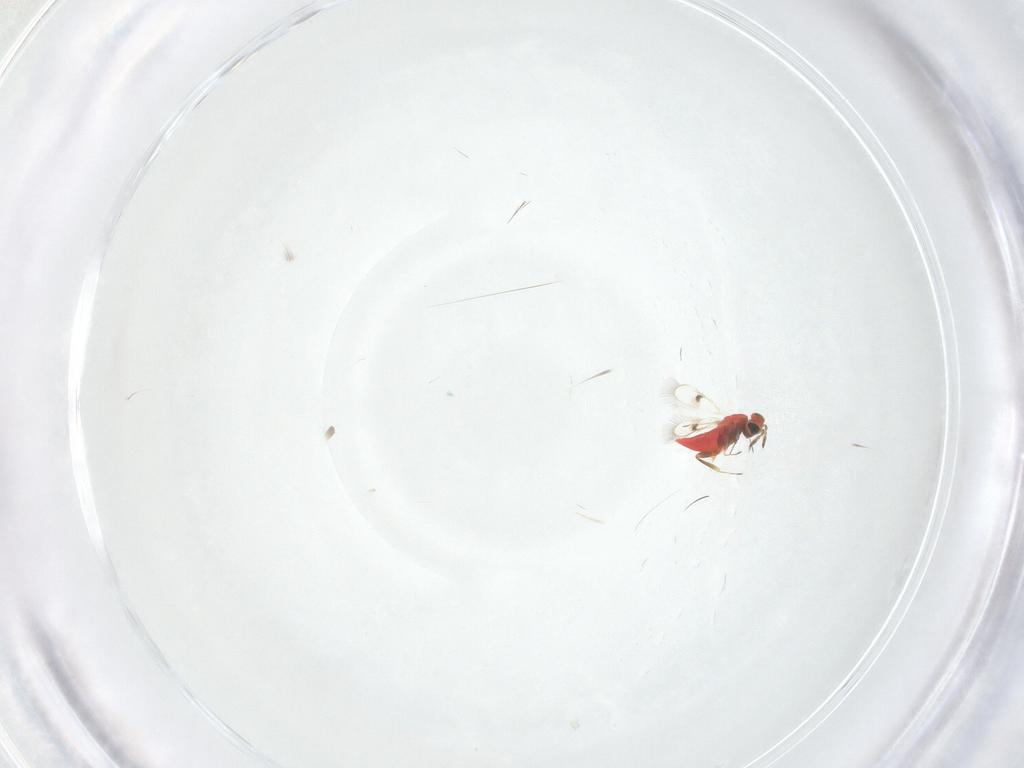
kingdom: Animalia
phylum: Arthropoda
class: Insecta
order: Hymenoptera
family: Trichogrammatidae
